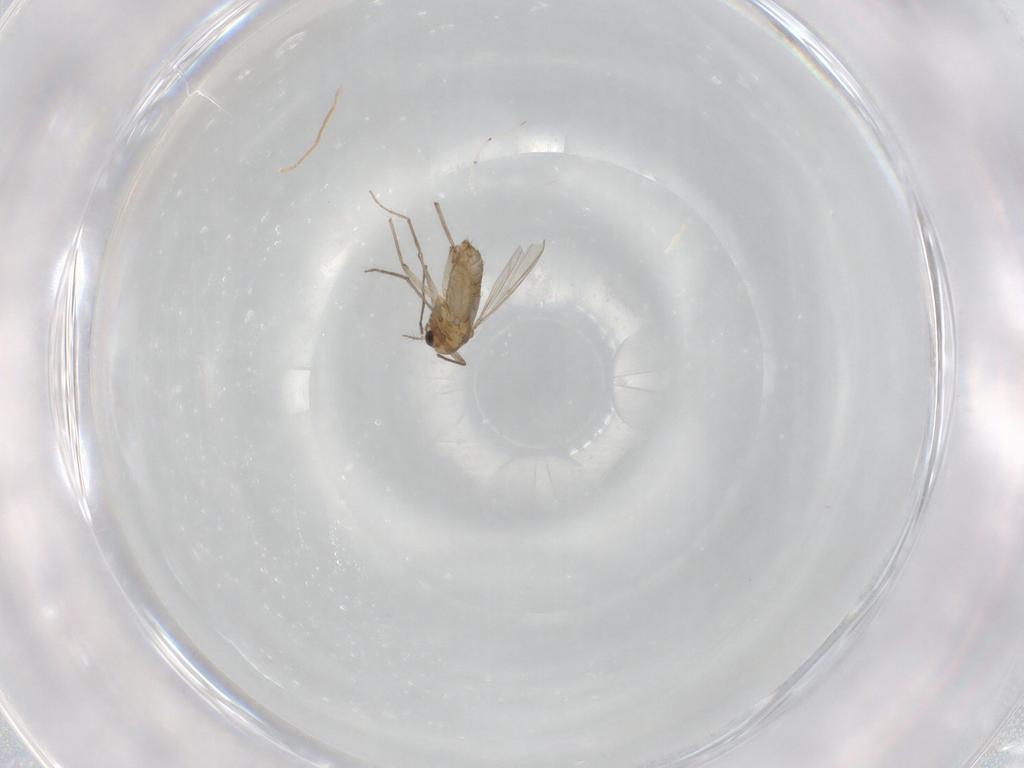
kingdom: Animalia
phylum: Arthropoda
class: Insecta
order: Diptera
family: Chironomidae
